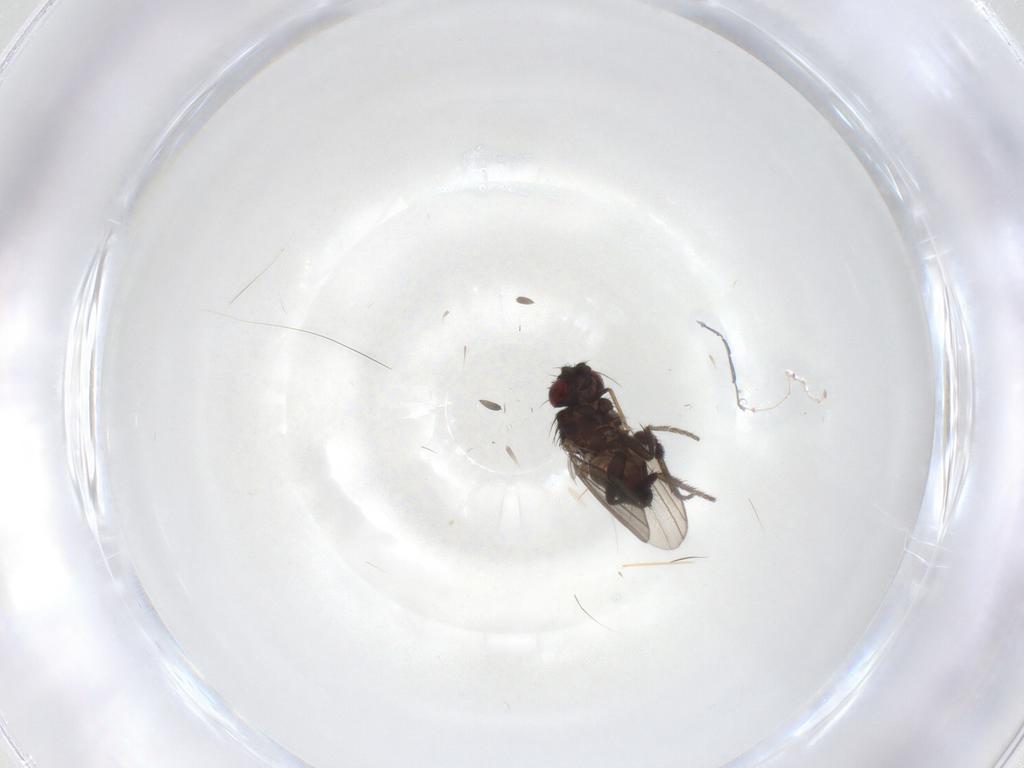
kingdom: Animalia
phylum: Arthropoda
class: Insecta
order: Diptera
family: Milichiidae
